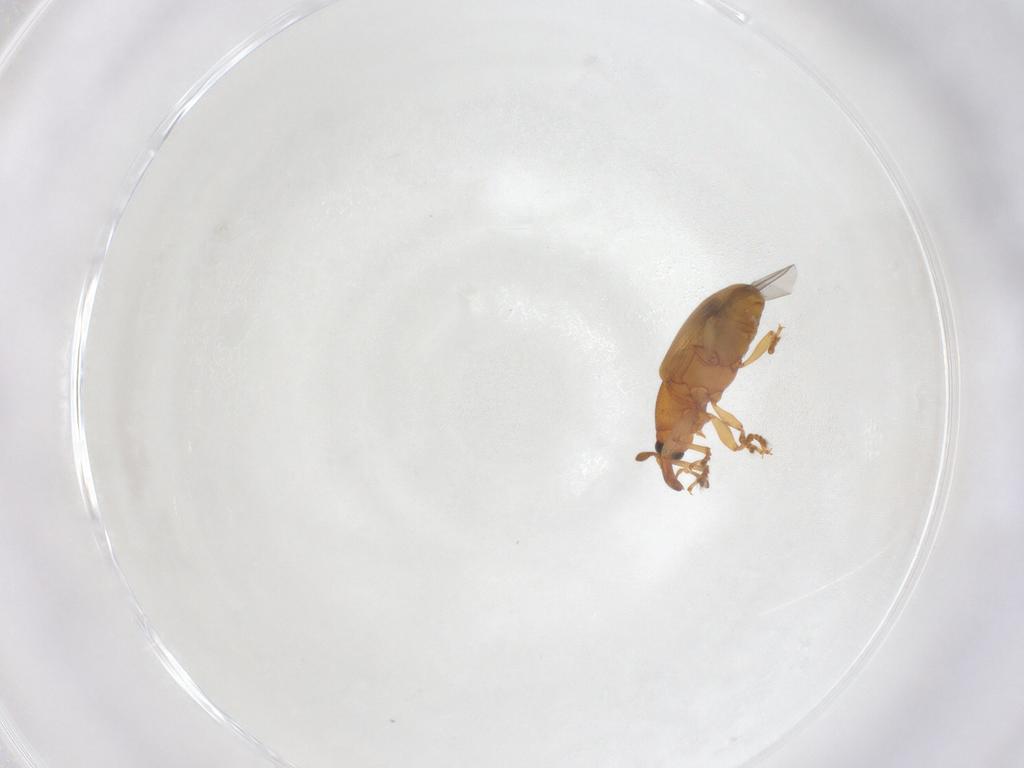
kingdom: Animalia
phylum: Arthropoda
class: Insecta
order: Coleoptera
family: Curculionidae
